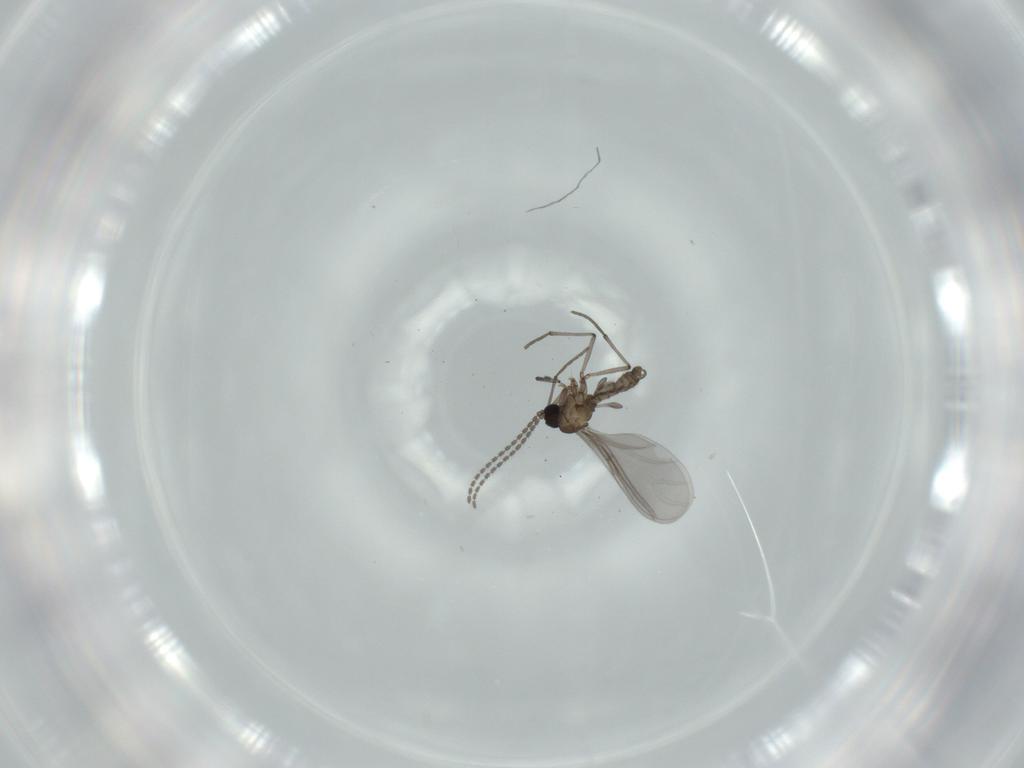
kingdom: Animalia
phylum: Arthropoda
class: Insecta
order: Diptera
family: Sciaridae
